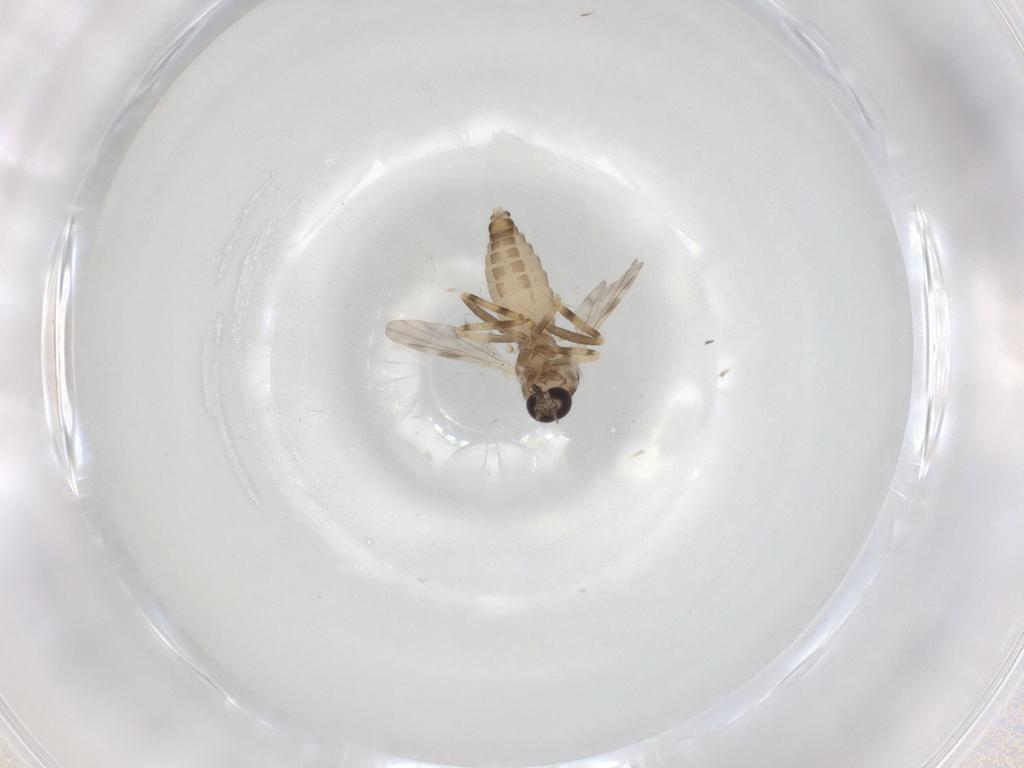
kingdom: Animalia
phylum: Arthropoda
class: Insecta
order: Diptera
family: Ceratopogonidae
